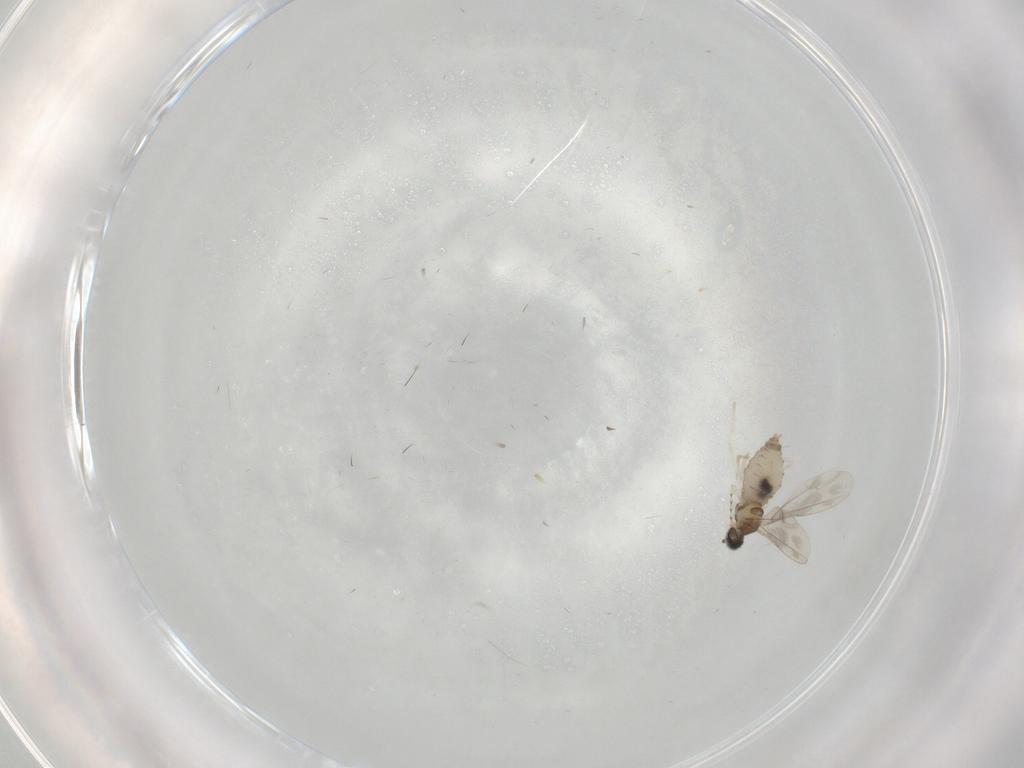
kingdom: Animalia
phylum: Arthropoda
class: Insecta
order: Diptera
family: Cecidomyiidae
